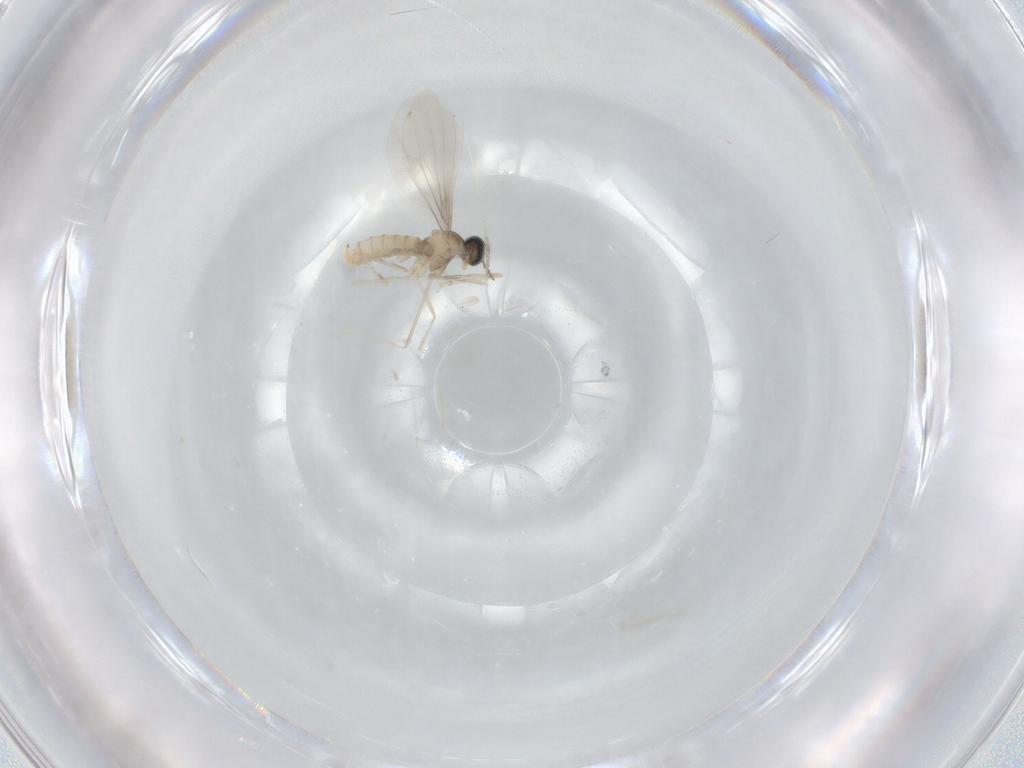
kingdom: Animalia
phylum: Arthropoda
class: Insecta
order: Diptera
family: Cecidomyiidae
